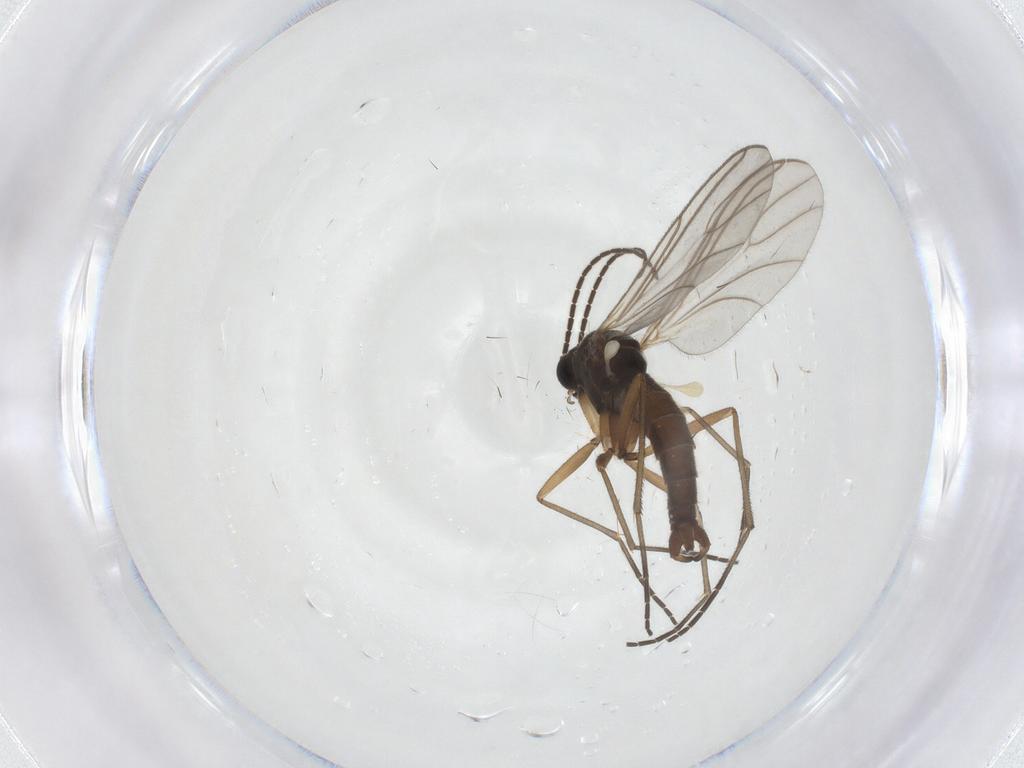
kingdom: Animalia
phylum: Arthropoda
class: Insecta
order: Diptera
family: Sciaridae
